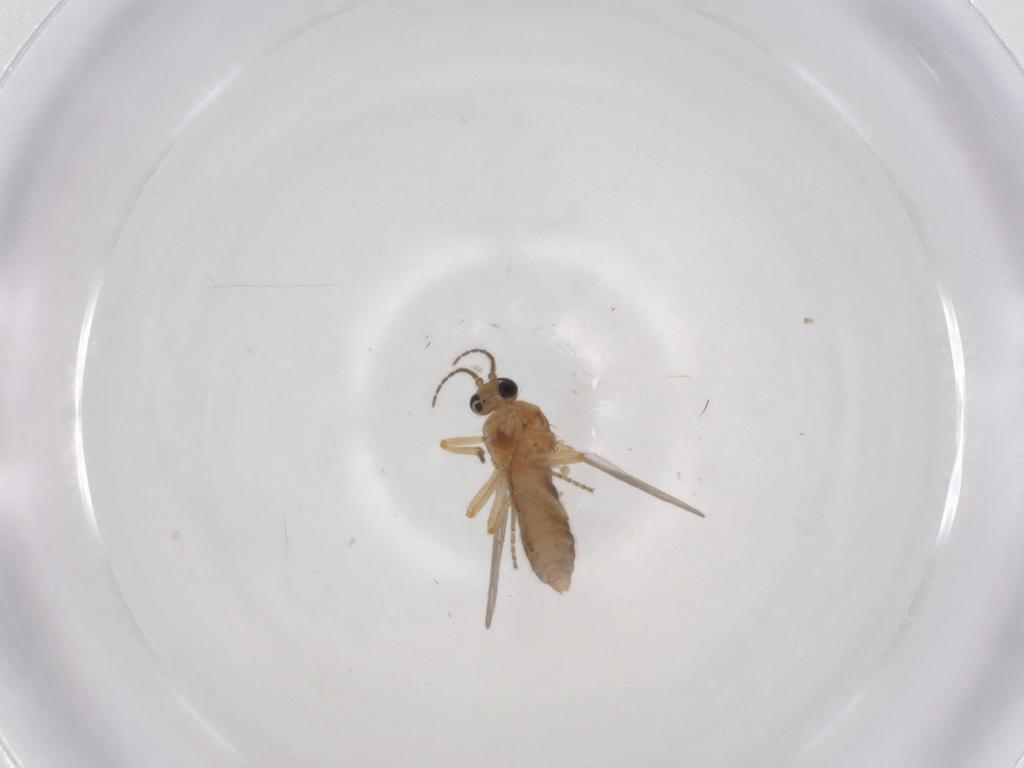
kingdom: Animalia
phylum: Arthropoda
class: Insecta
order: Diptera
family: Ceratopogonidae
